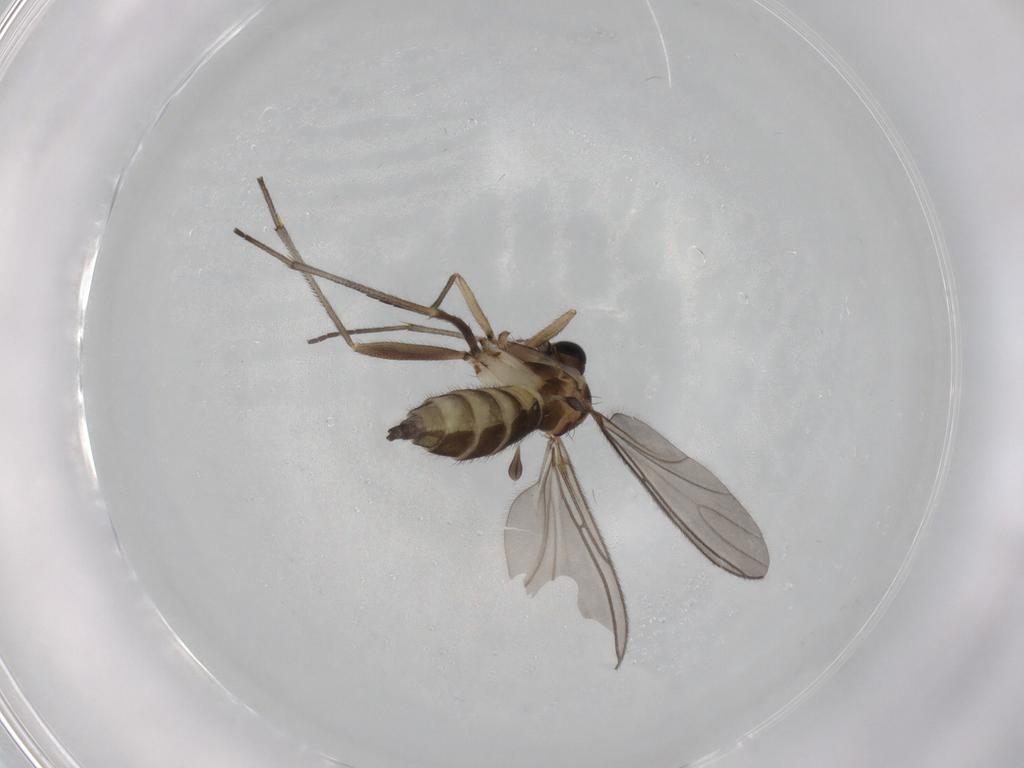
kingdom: Animalia
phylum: Arthropoda
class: Insecta
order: Diptera
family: Sciaridae
